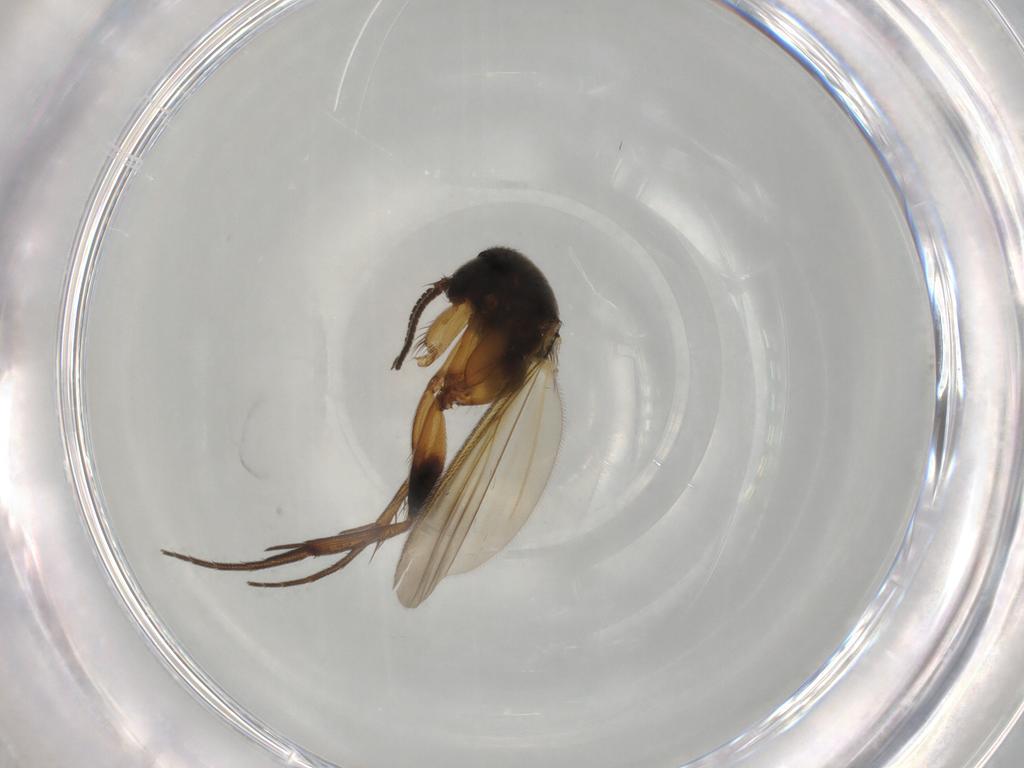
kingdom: Animalia
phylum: Arthropoda
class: Insecta
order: Diptera
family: Polleniidae
